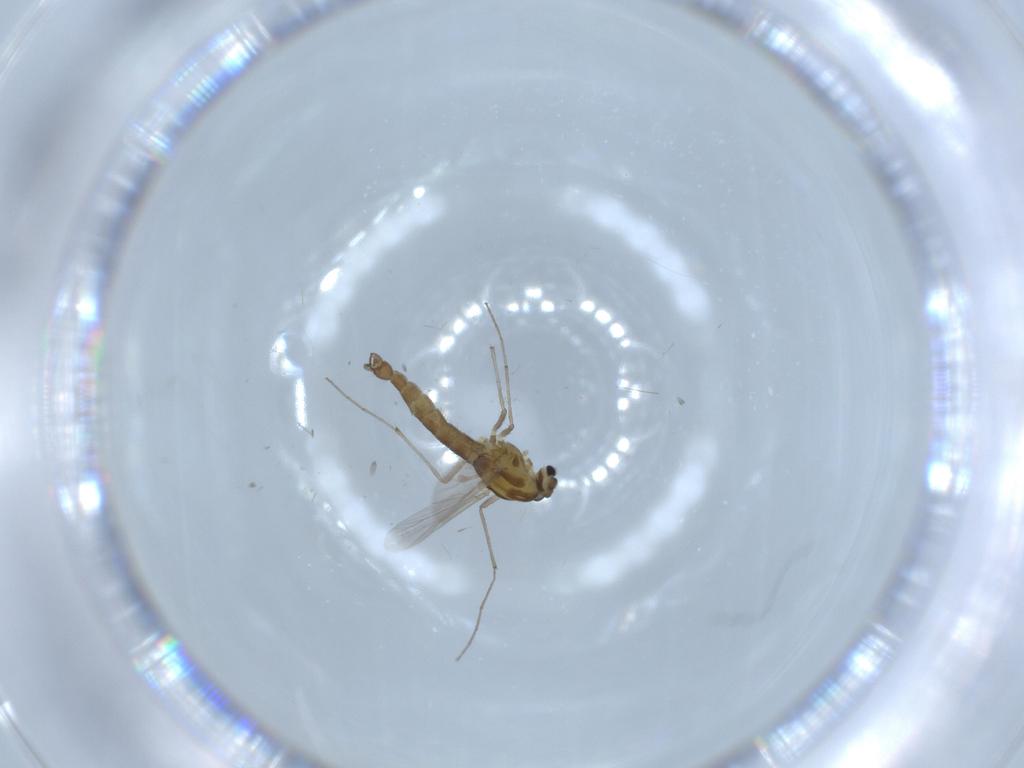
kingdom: Animalia
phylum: Arthropoda
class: Insecta
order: Diptera
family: Chironomidae
